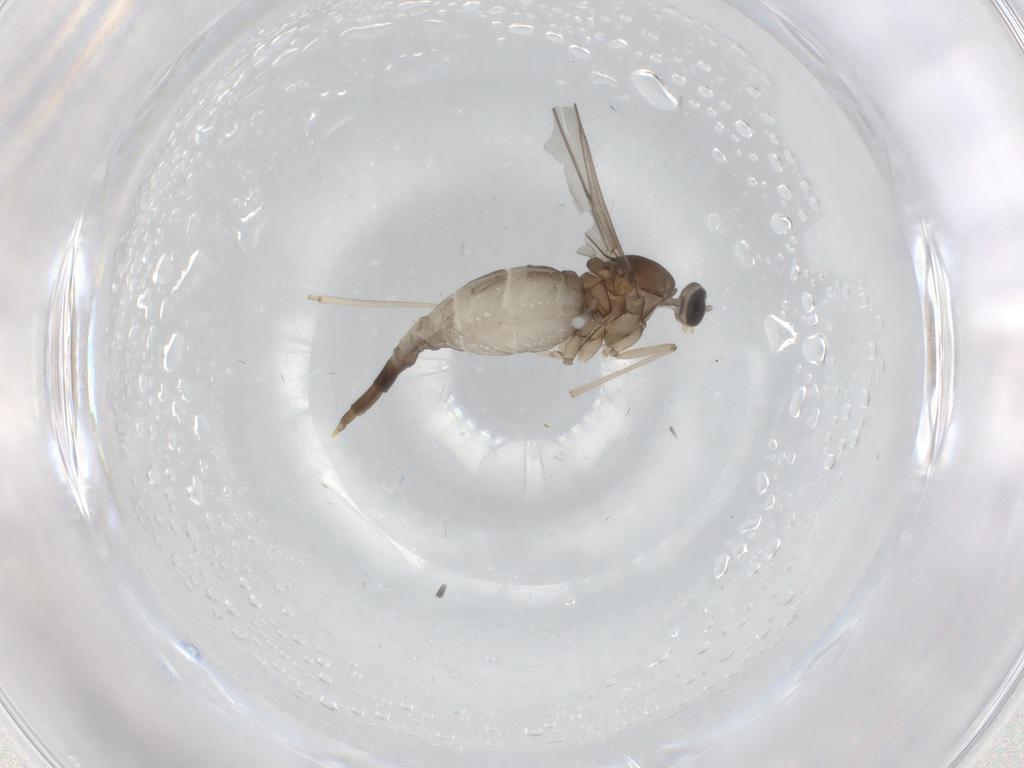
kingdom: Animalia
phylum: Arthropoda
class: Insecta
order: Diptera
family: Cecidomyiidae
